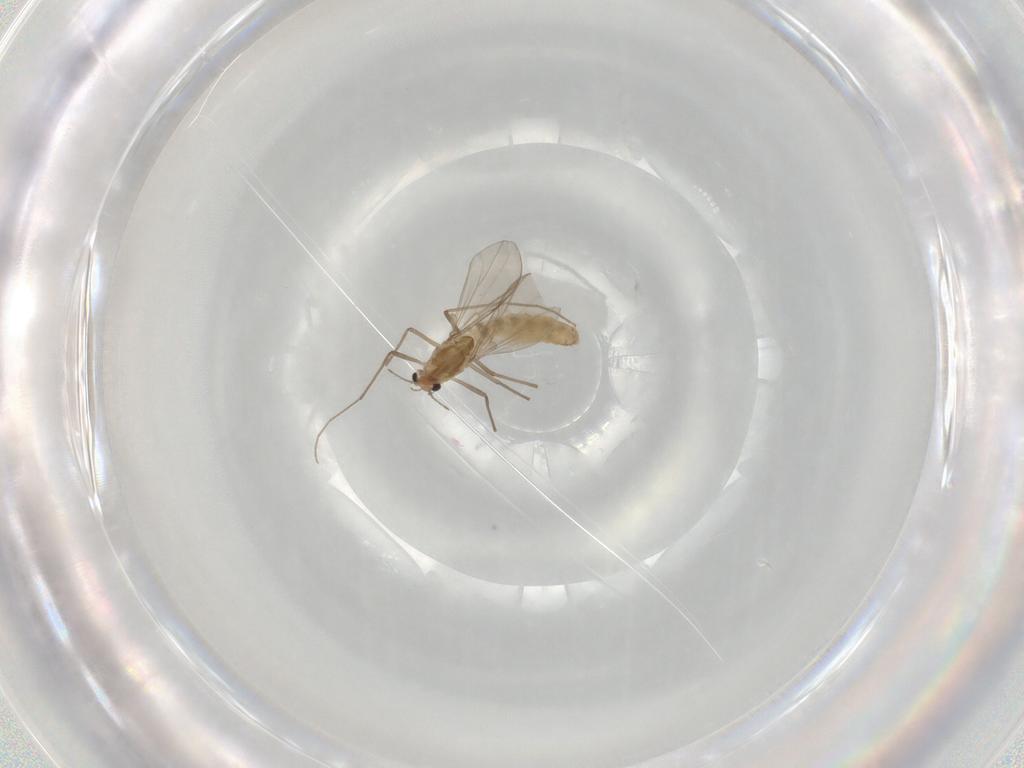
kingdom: Animalia
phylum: Arthropoda
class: Insecta
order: Diptera
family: Chironomidae
